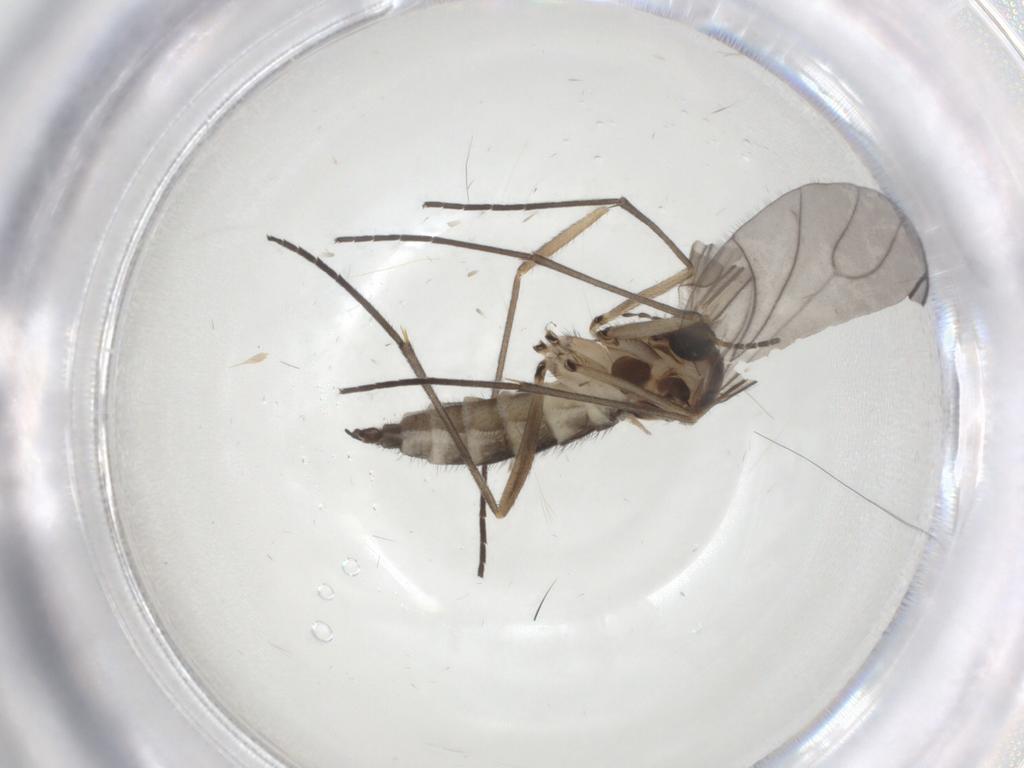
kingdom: Animalia
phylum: Arthropoda
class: Insecta
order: Diptera
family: Sciaridae
